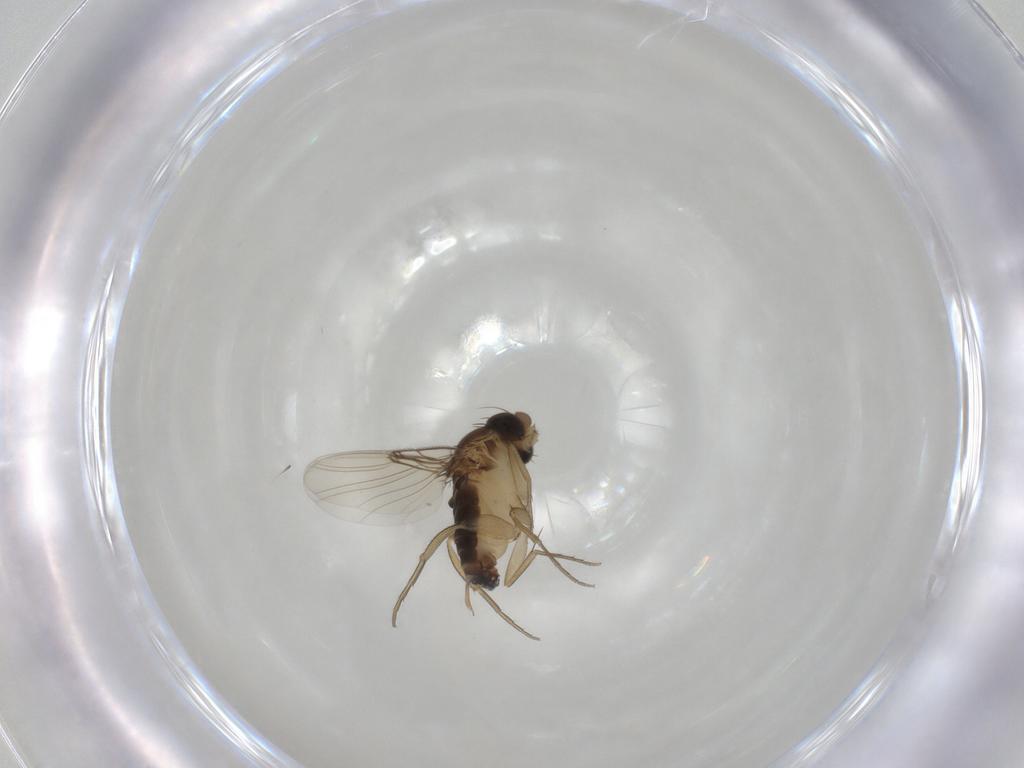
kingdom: Animalia
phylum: Arthropoda
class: Insecta
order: Diptera
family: Phoridae
